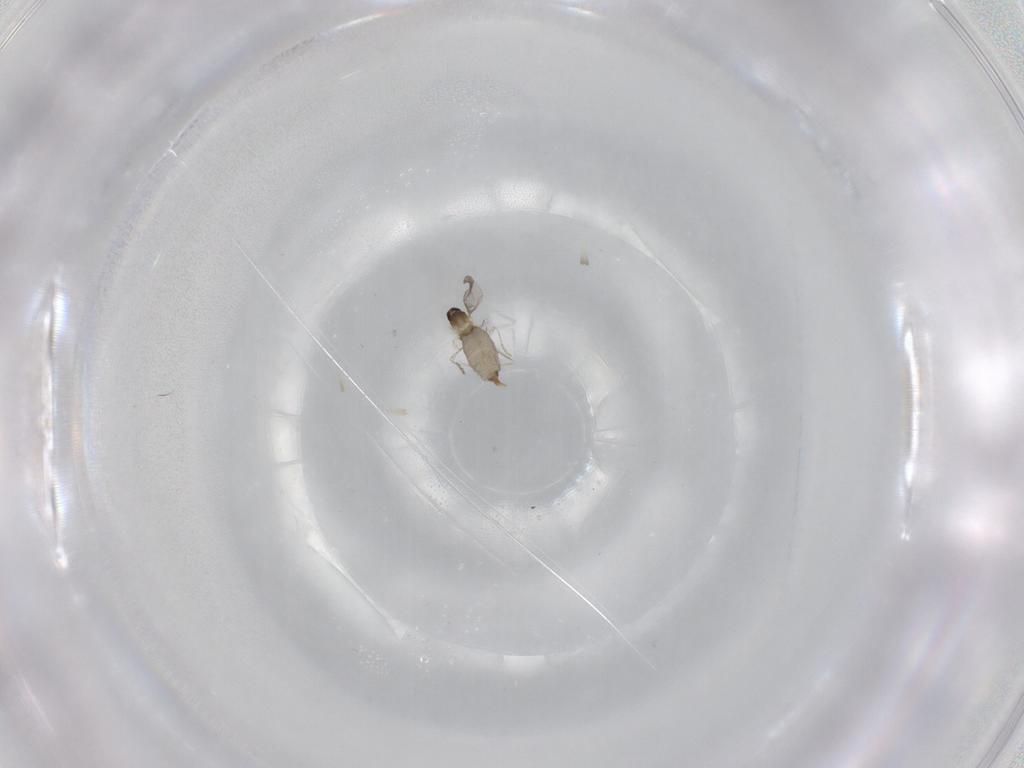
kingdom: Animalia
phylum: Arthropoda
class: Insecta
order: Diptera
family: Cecidomyiidae
